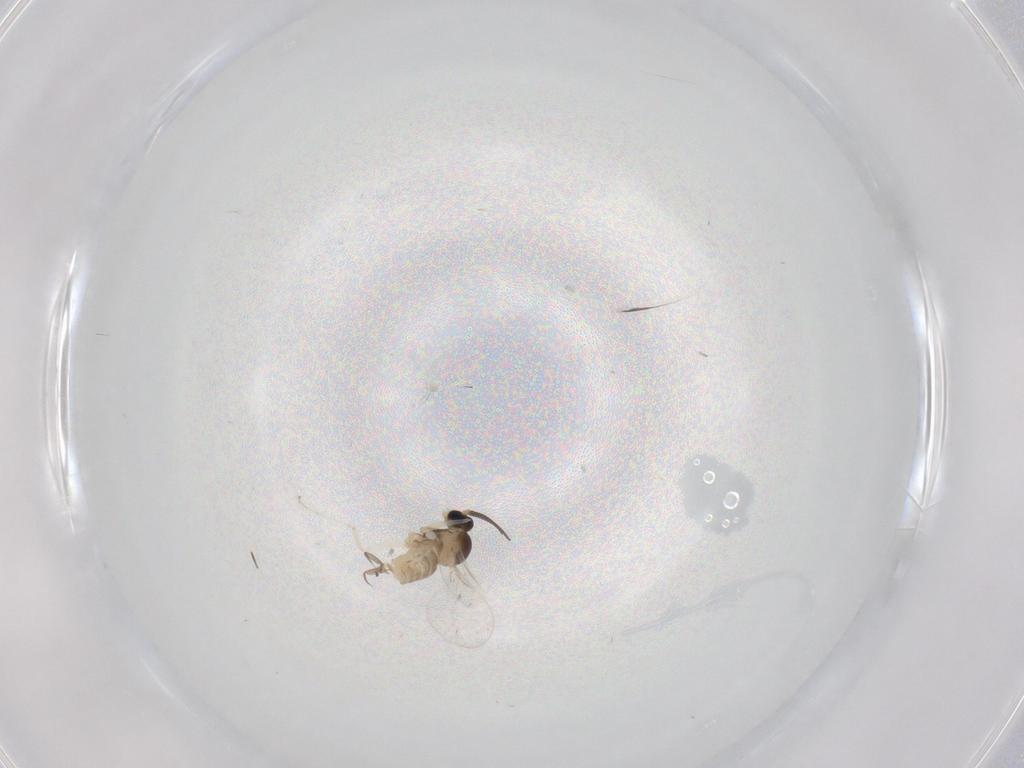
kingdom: Animalia
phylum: Arthropoda
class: Insecta
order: Diptera
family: Cecidomyiidae
